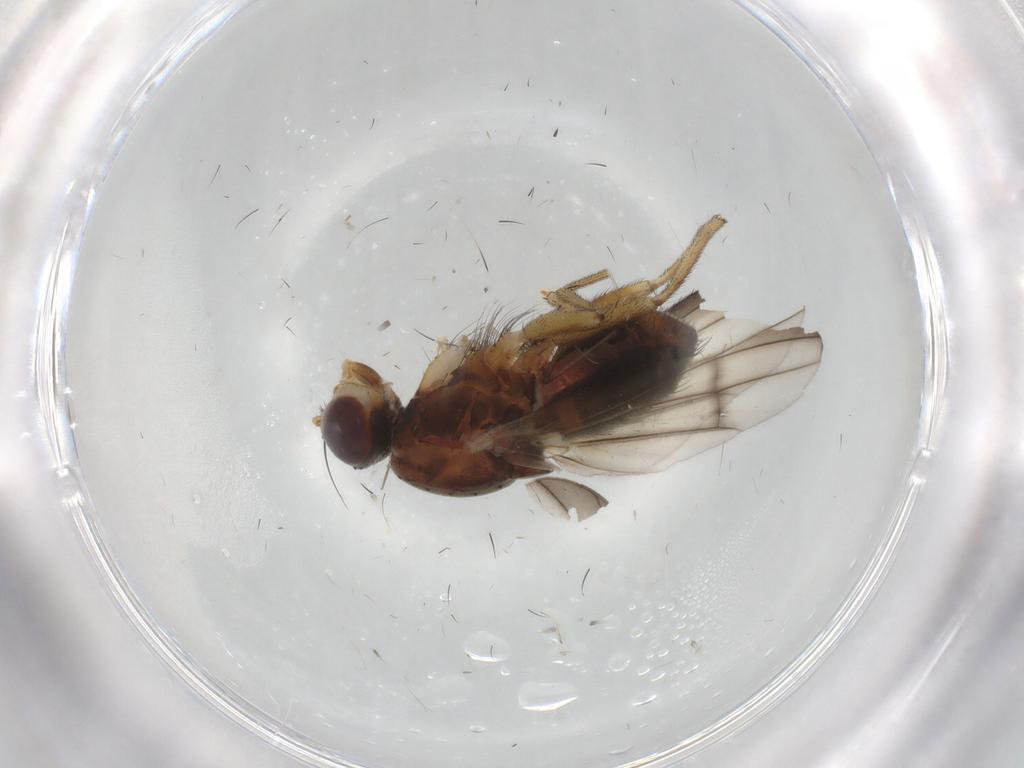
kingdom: Animalia
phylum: Arthropoda
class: Insecta
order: Diptera
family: Heleomyzidae
